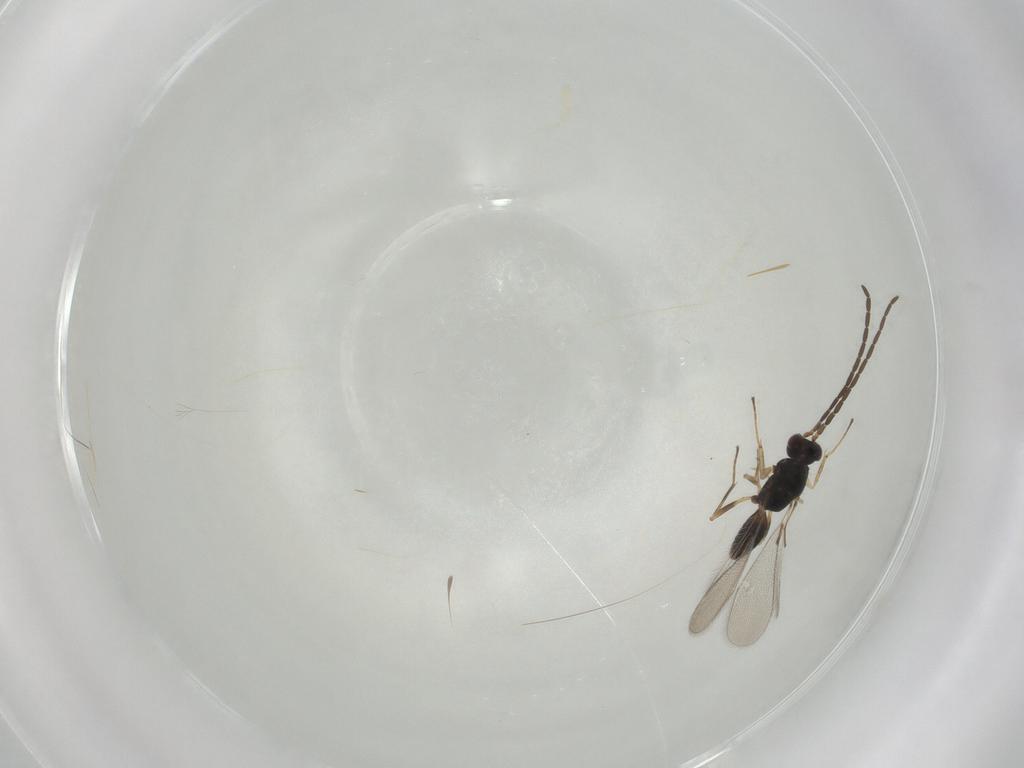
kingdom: Animalia
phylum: Arthropoda
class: Insecta
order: Hymenoptera
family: Mymaridae
